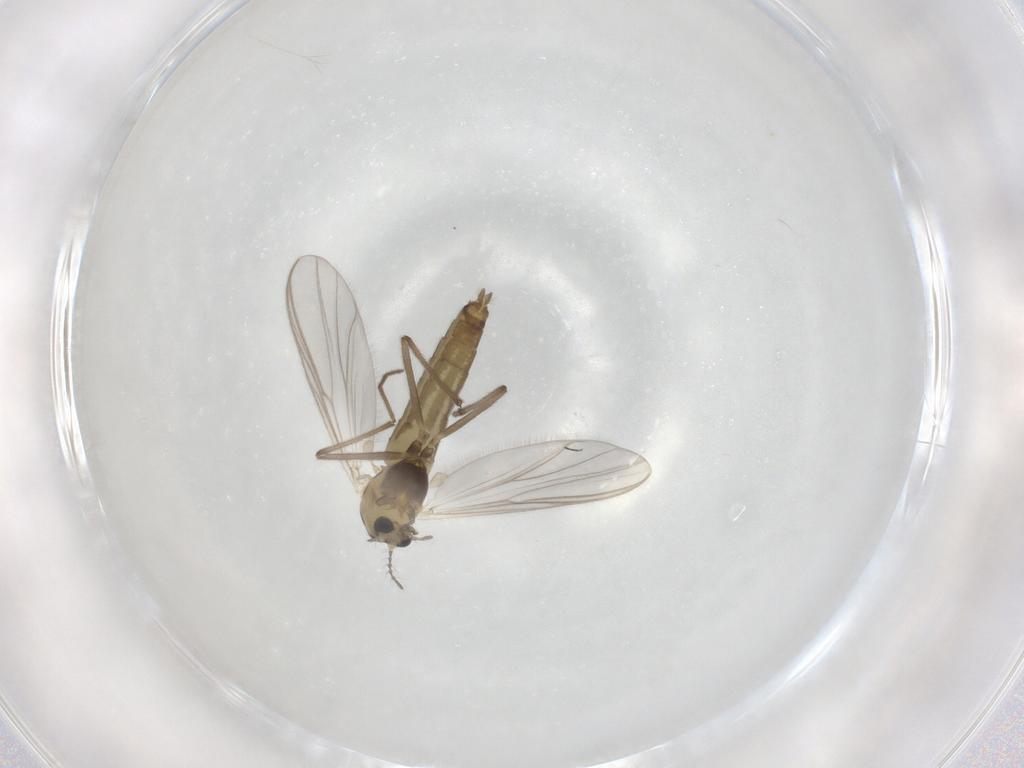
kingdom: Animalia
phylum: Arthropoda
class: Insecta
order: Diptera
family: Chironomidae
